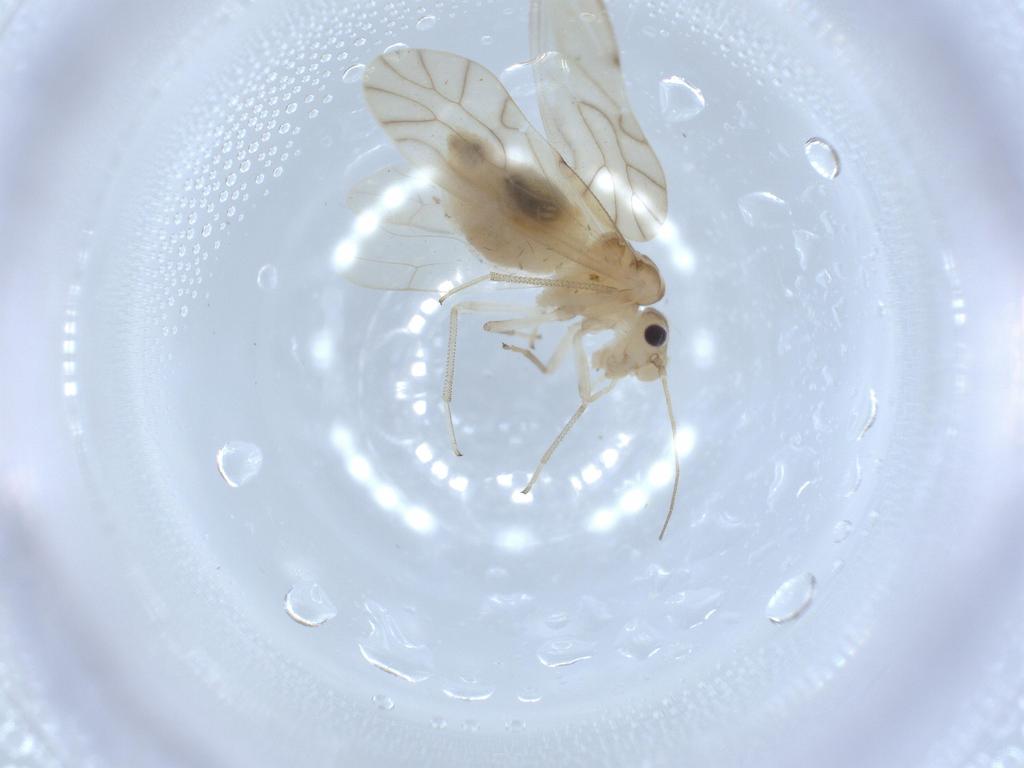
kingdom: Animalia
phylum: Arthropoda
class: Insecta
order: Psocodea
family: Caeciliusidae
